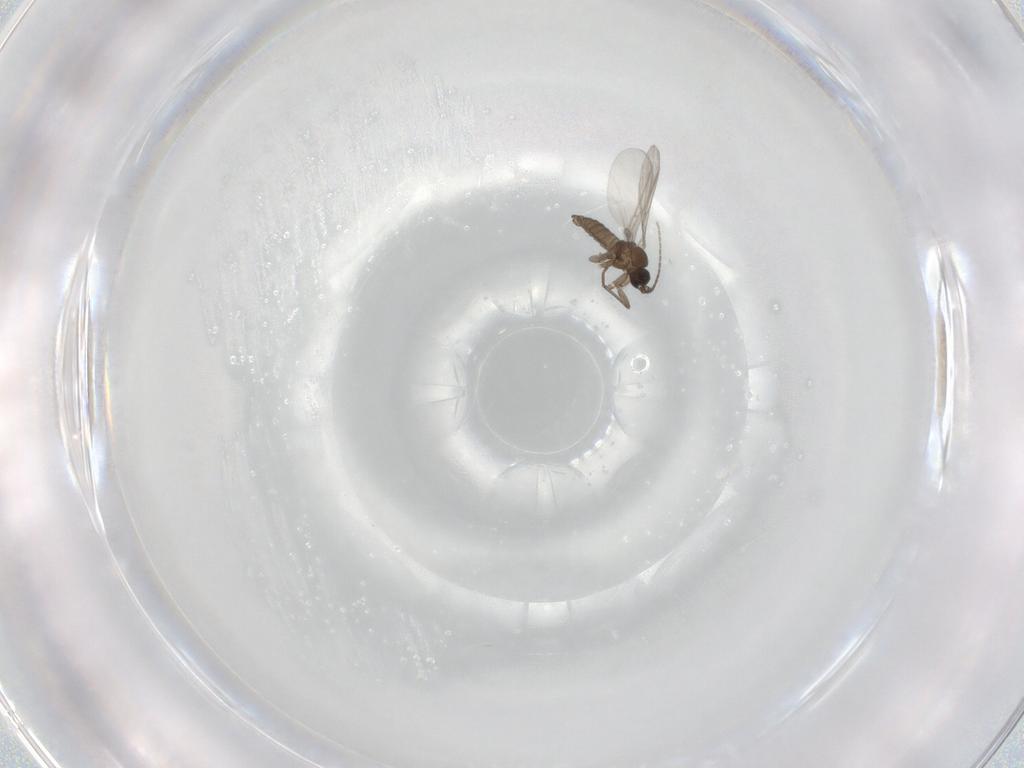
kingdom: Animalia
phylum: Arthropoda
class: Insecta
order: Diptera
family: Sciaridae
